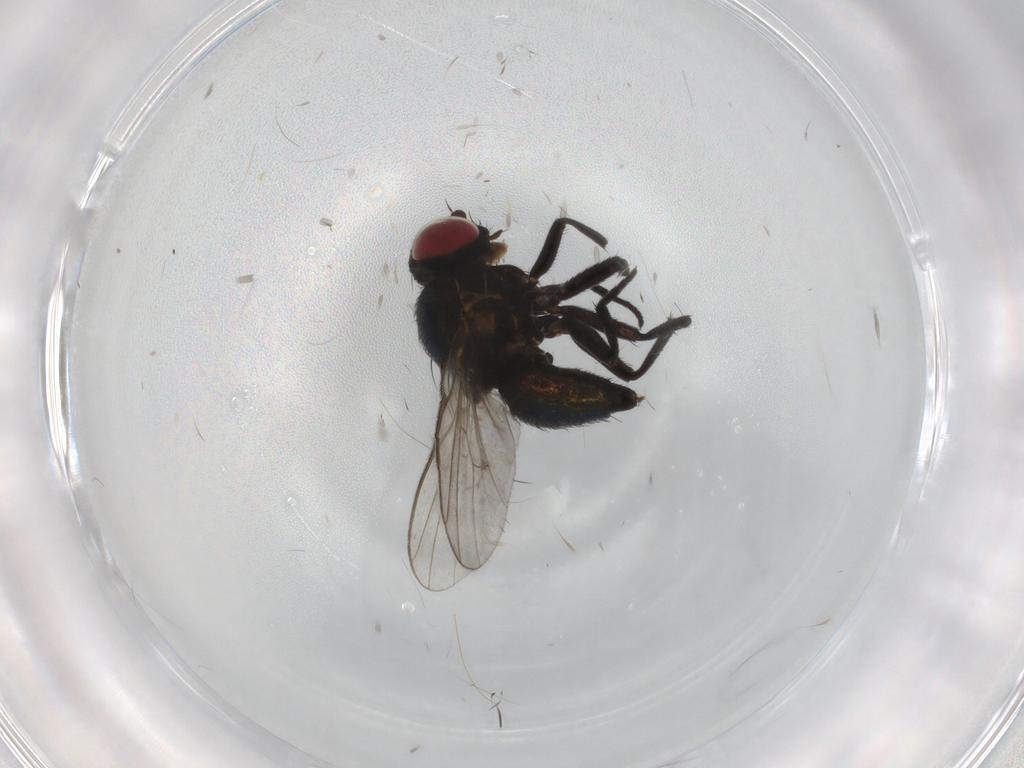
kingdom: Animalia
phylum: Arthropoda
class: Insecta
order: Diptera
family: Agromyzidae
